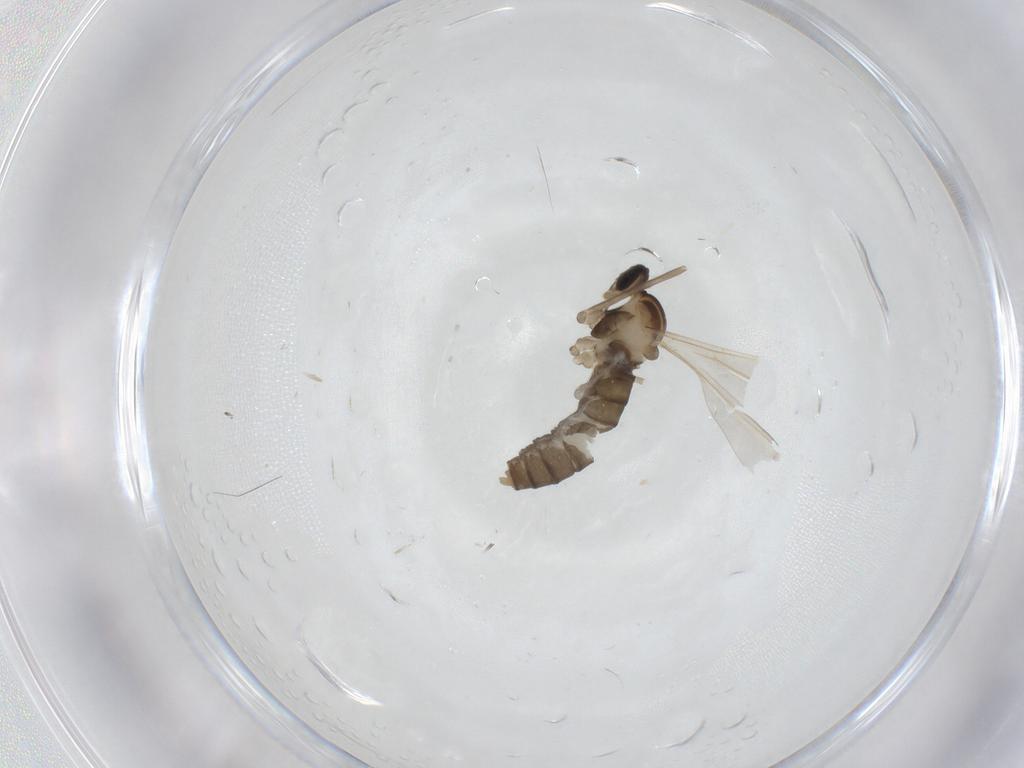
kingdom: Animalia
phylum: Arthropoda
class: Insecta
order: Diptera
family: Cecidomyiidae
